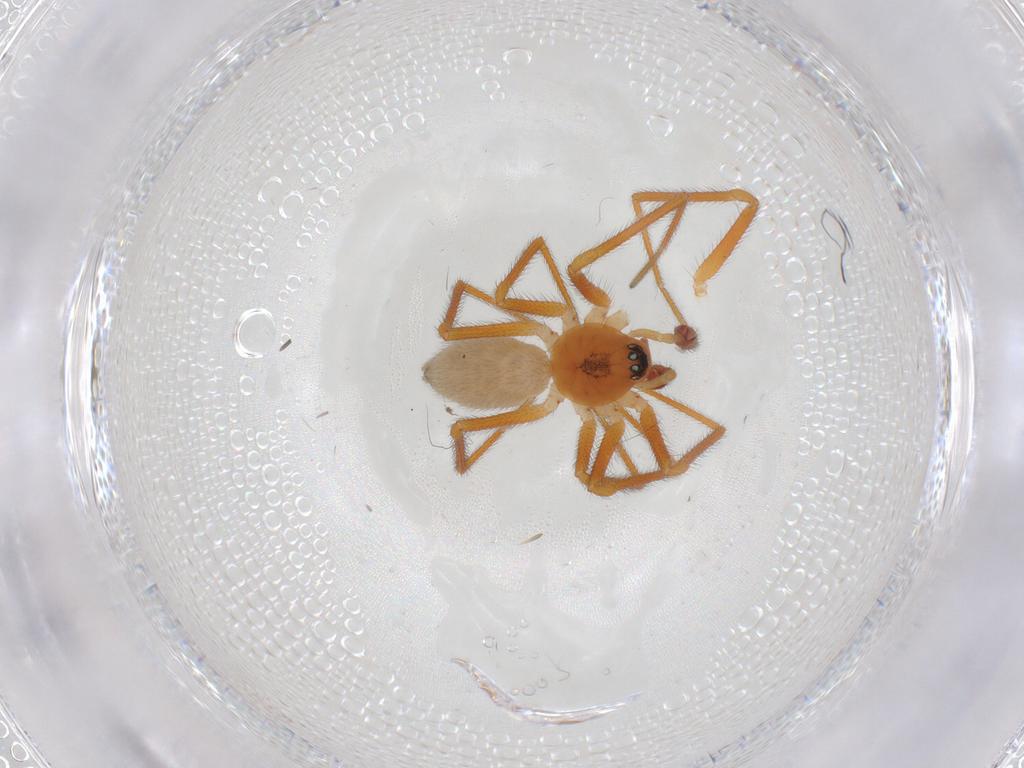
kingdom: Animalia
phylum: Arthropoda
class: Arachnida
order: Araneae
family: Linyphiidae
